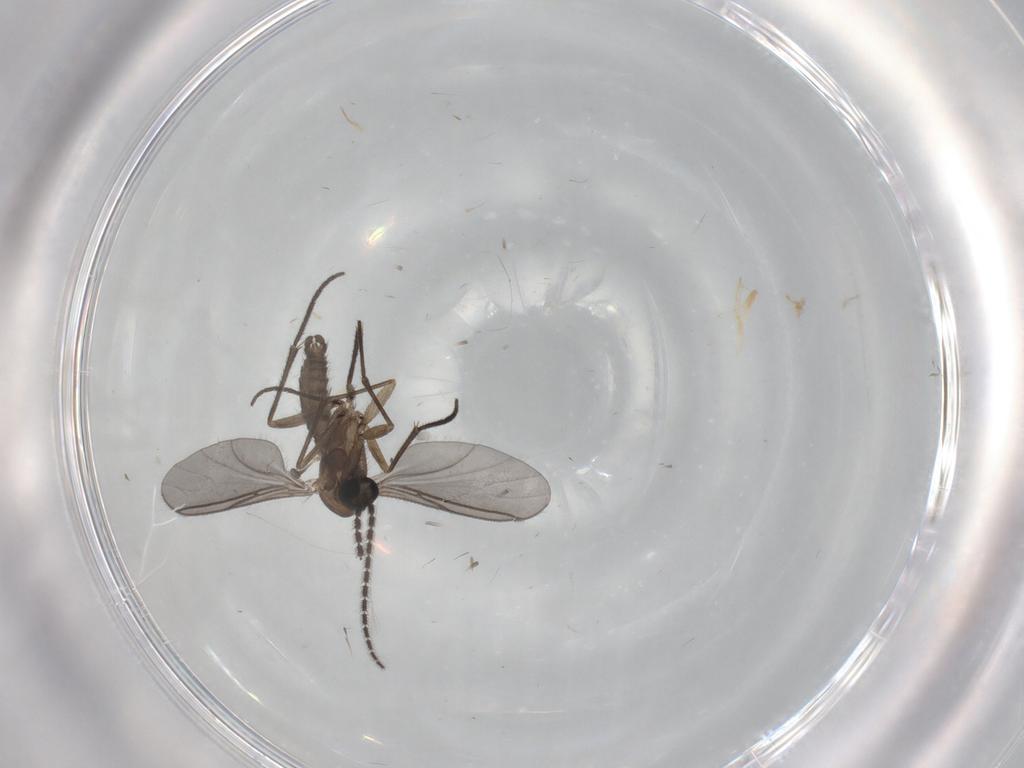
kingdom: Animalia
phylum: Arthropoda
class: Insecta
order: Diptera
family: Sciaridae
